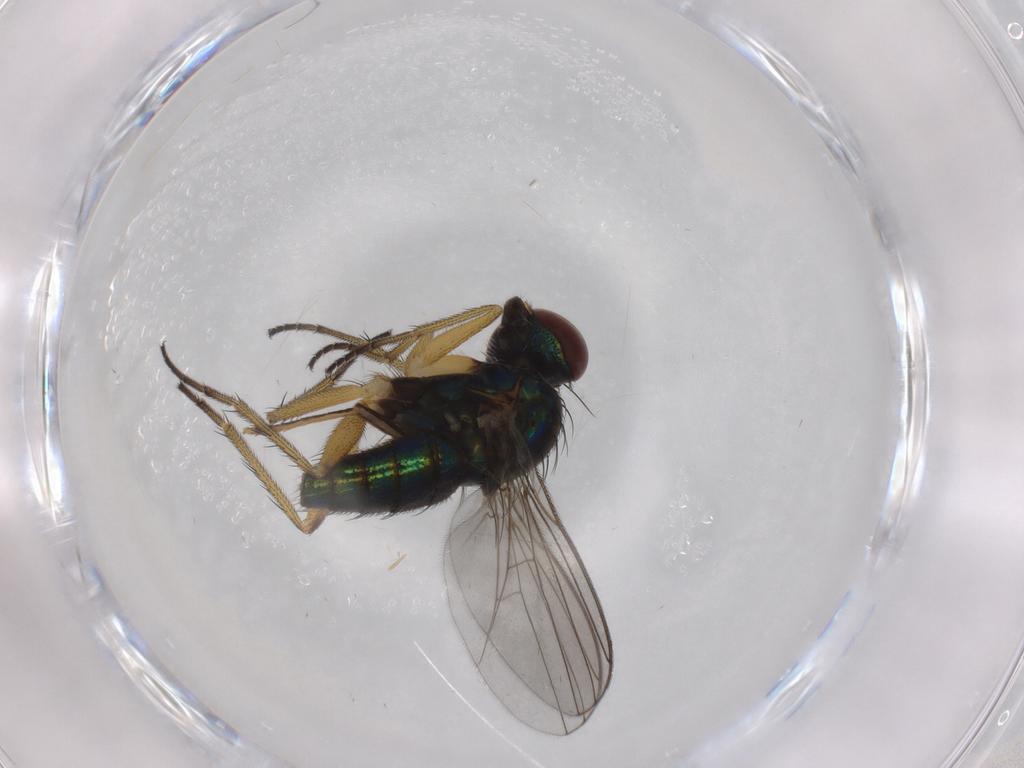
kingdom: Animalia
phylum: Arthropoda
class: Insecta
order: Diptera
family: Dolichopodidae
